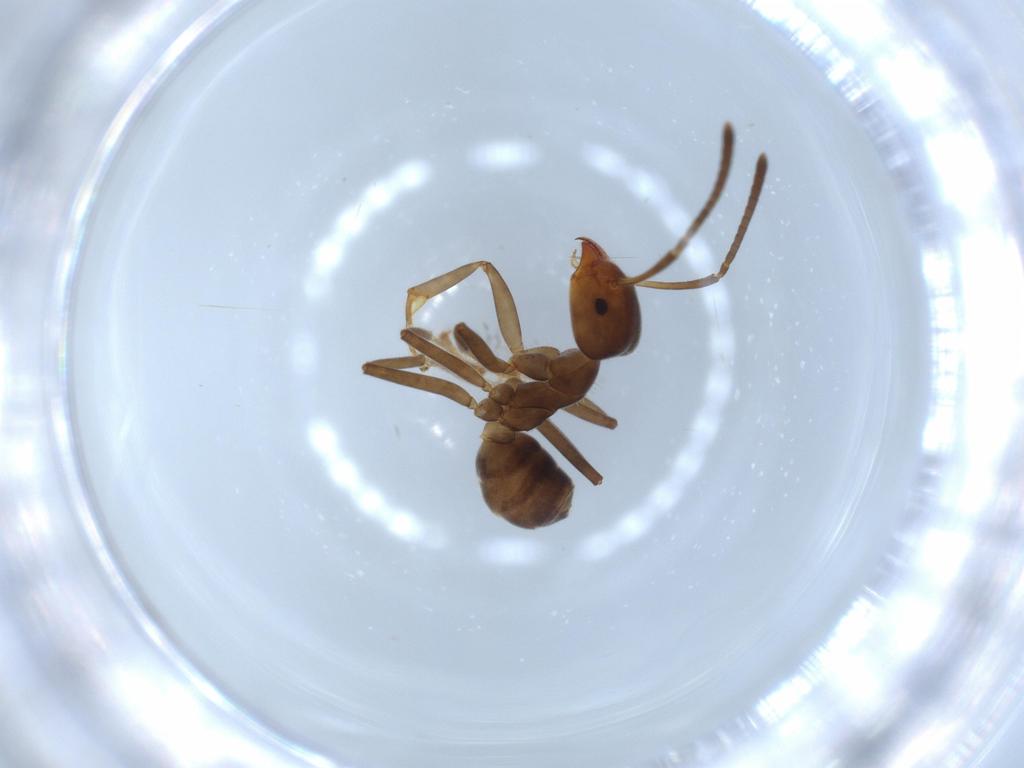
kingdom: Animalia
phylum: Arthropoda
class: Insecta
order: Hymenoptera
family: Formicidae
